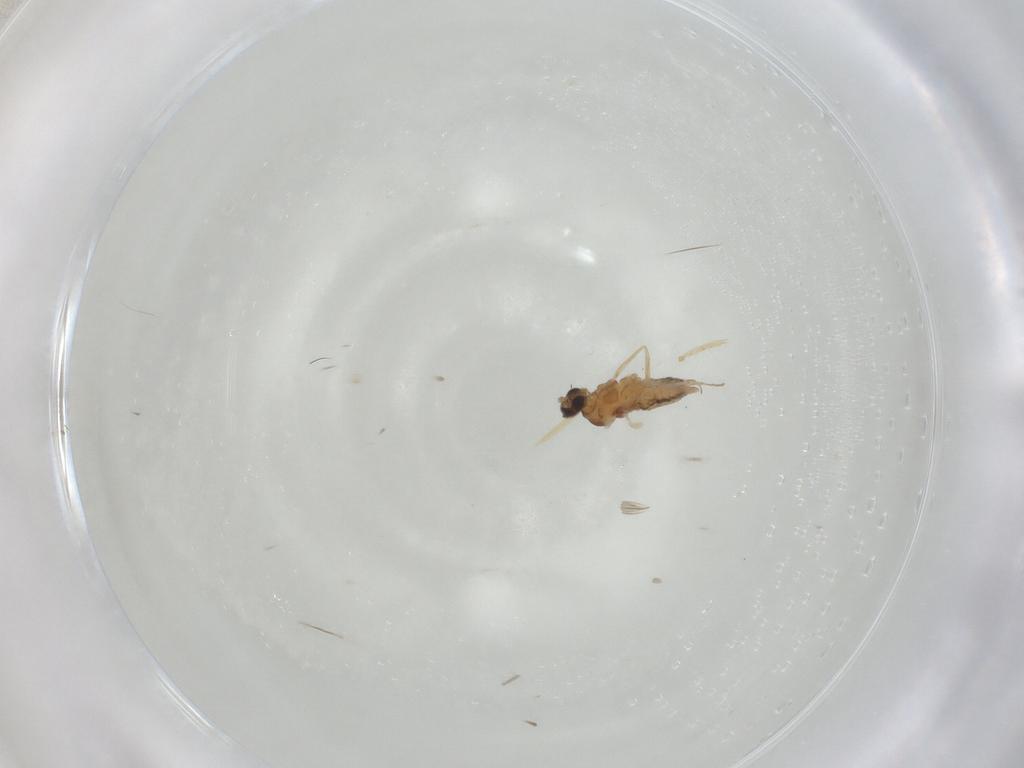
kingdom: Animalia
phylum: Arthropoda
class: Insecta
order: Diptera
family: Cecidomyiidae
